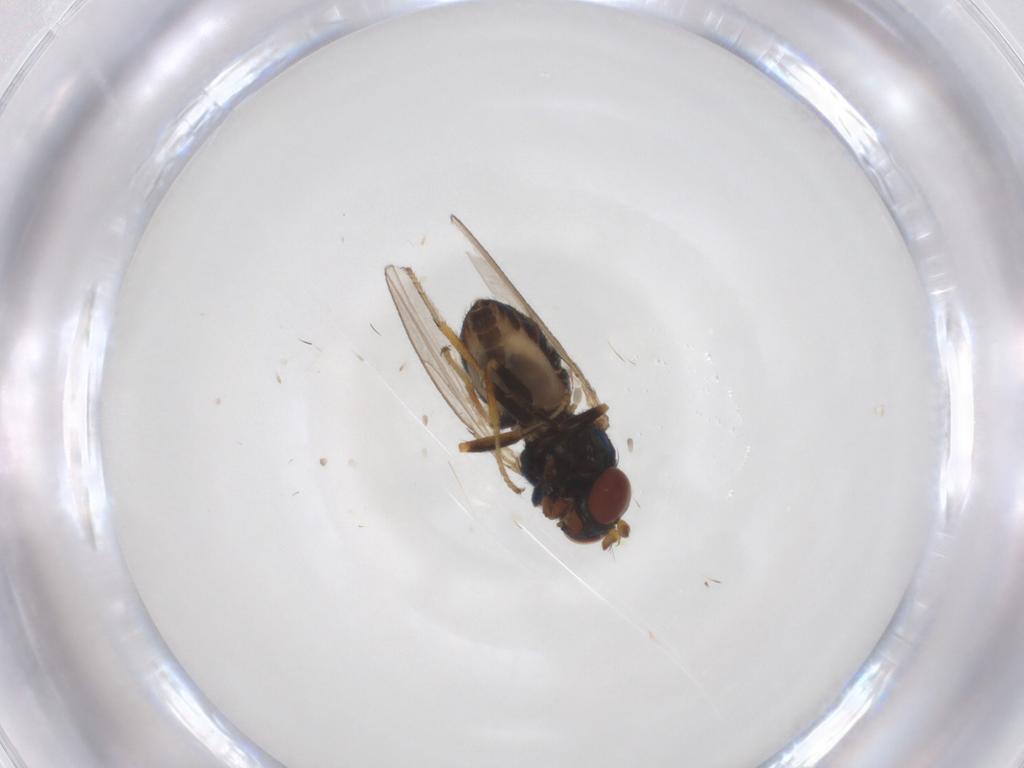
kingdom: Animalia
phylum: Arthropoda
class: Insecta
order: Diptera
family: Ephydridae
